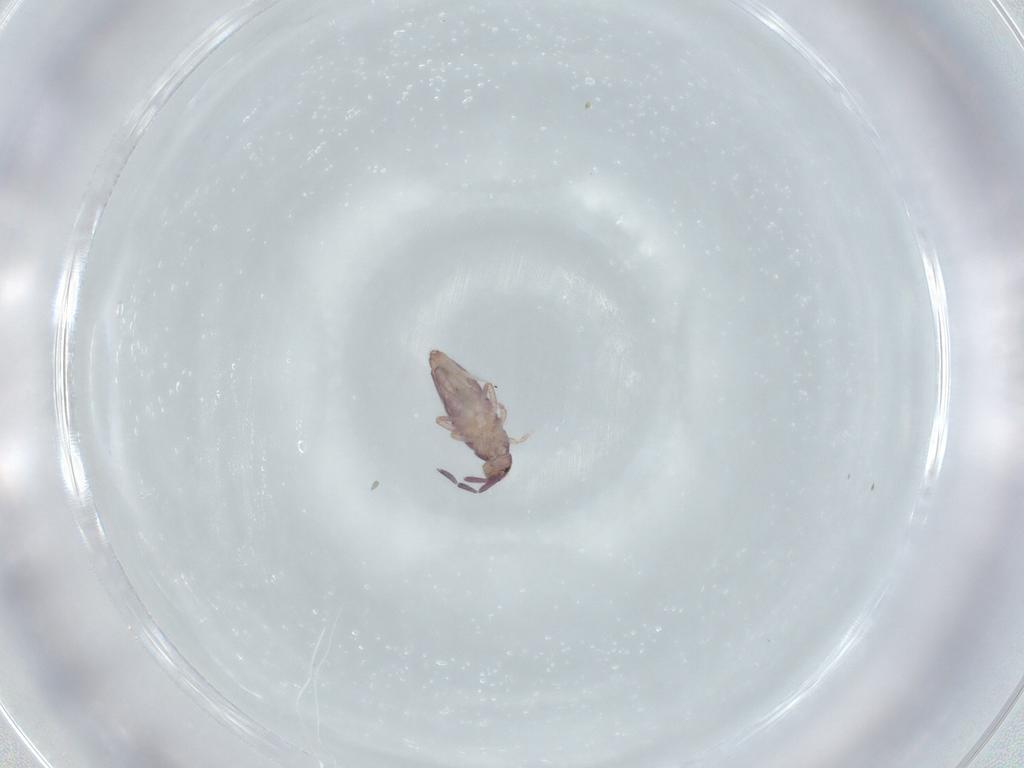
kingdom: Animalia
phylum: Arthropoda
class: Collembola
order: Entomobryomorpha
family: Entomobryidae
